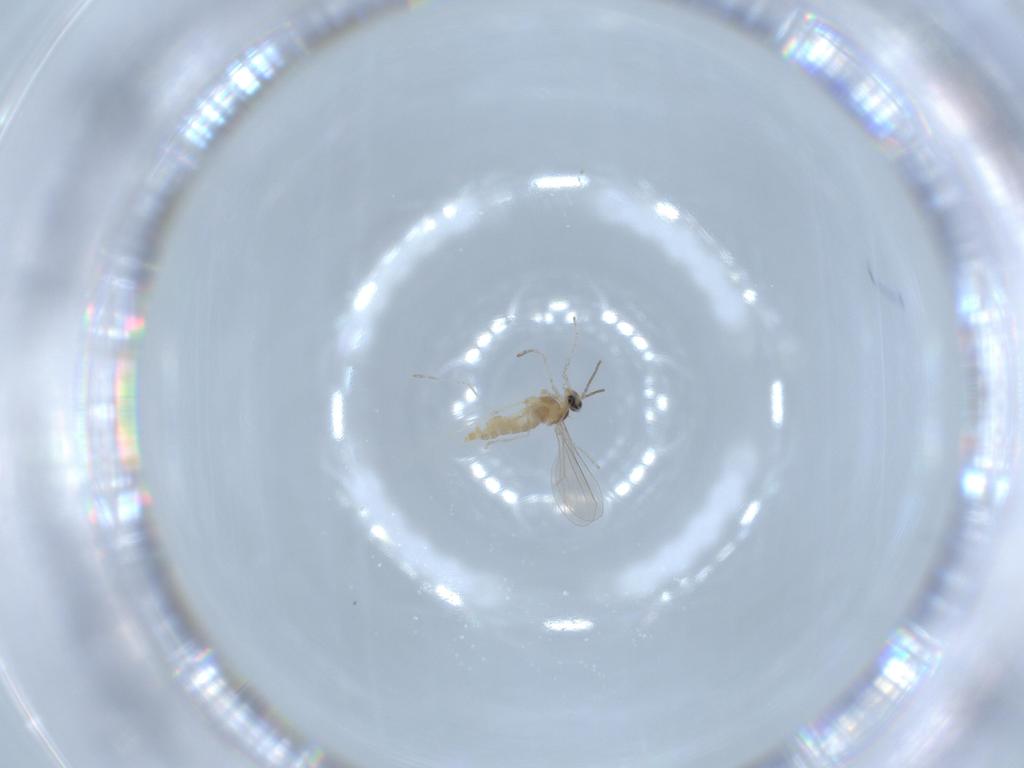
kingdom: Animalia
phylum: Arthropoda
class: Insecta
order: Diptera
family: Cecidomyiidae
